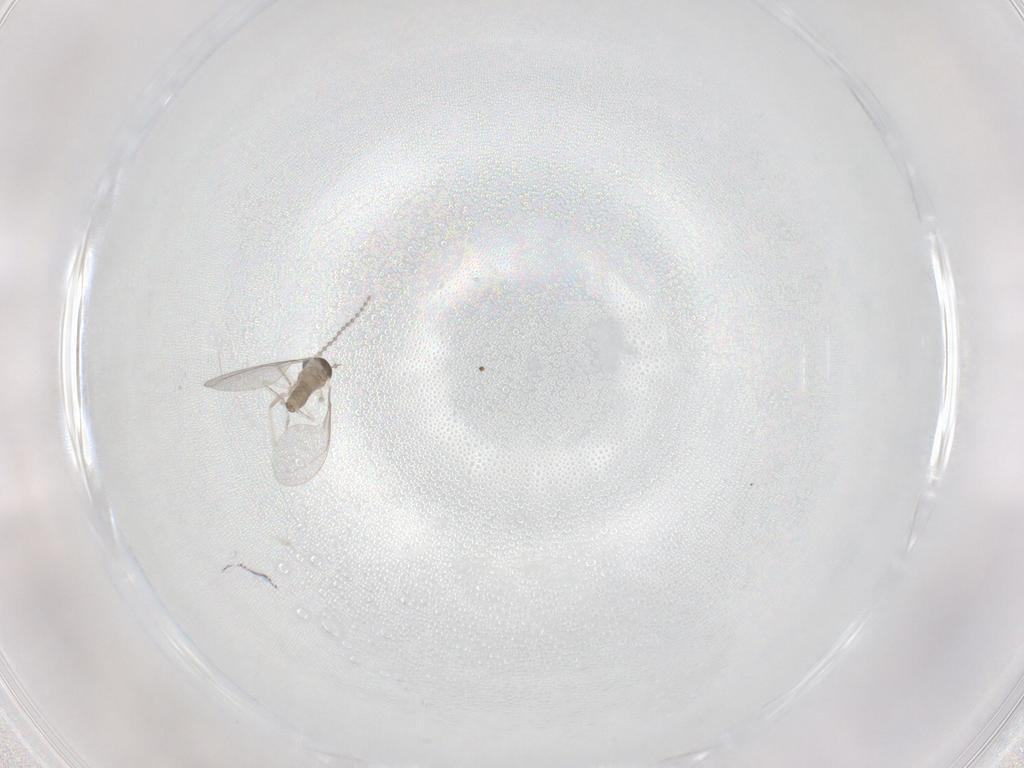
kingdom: Animalia
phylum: Arthropoda
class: Insecta
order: Diptera
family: Cecidomyiidae
